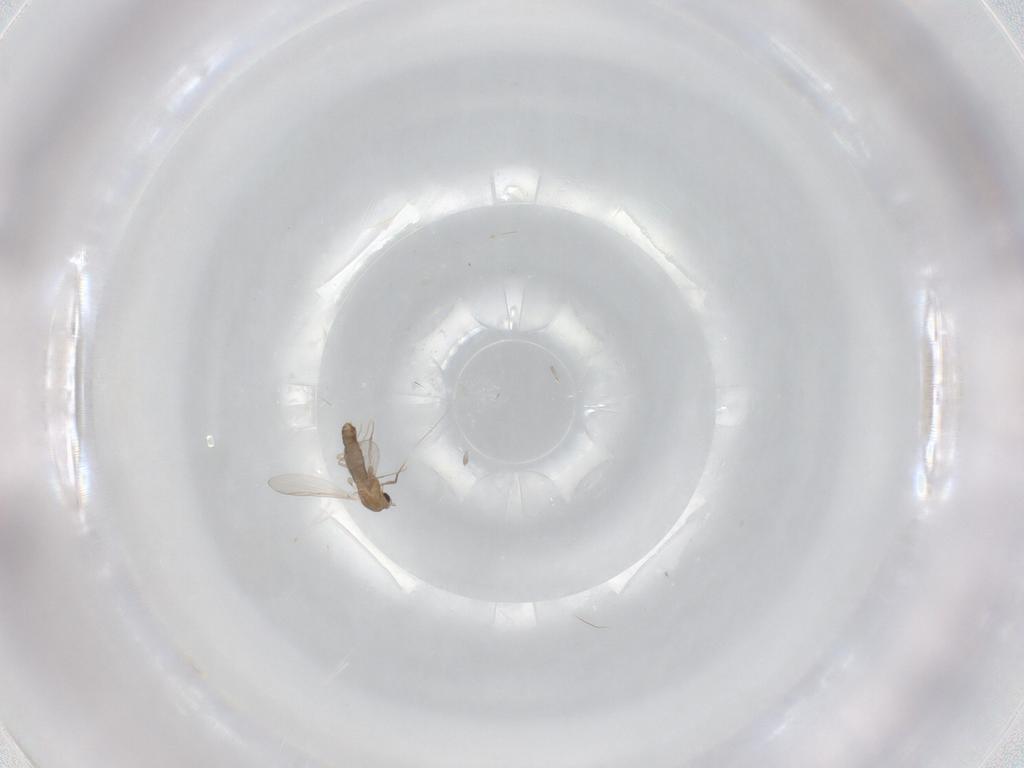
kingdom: Animalia
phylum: Arthropoda
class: Insecta
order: Diptera
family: Chironomidae
